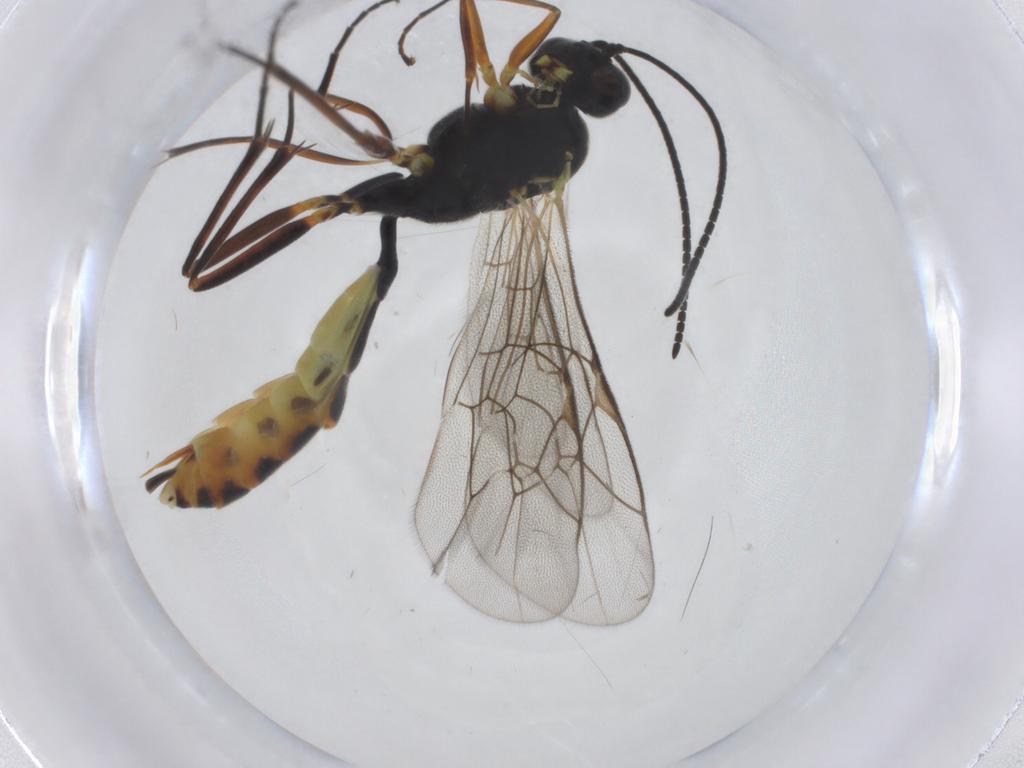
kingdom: Animalia
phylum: Arthropoda
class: Insecta
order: Hymenoptera
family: Ichneumonidae
